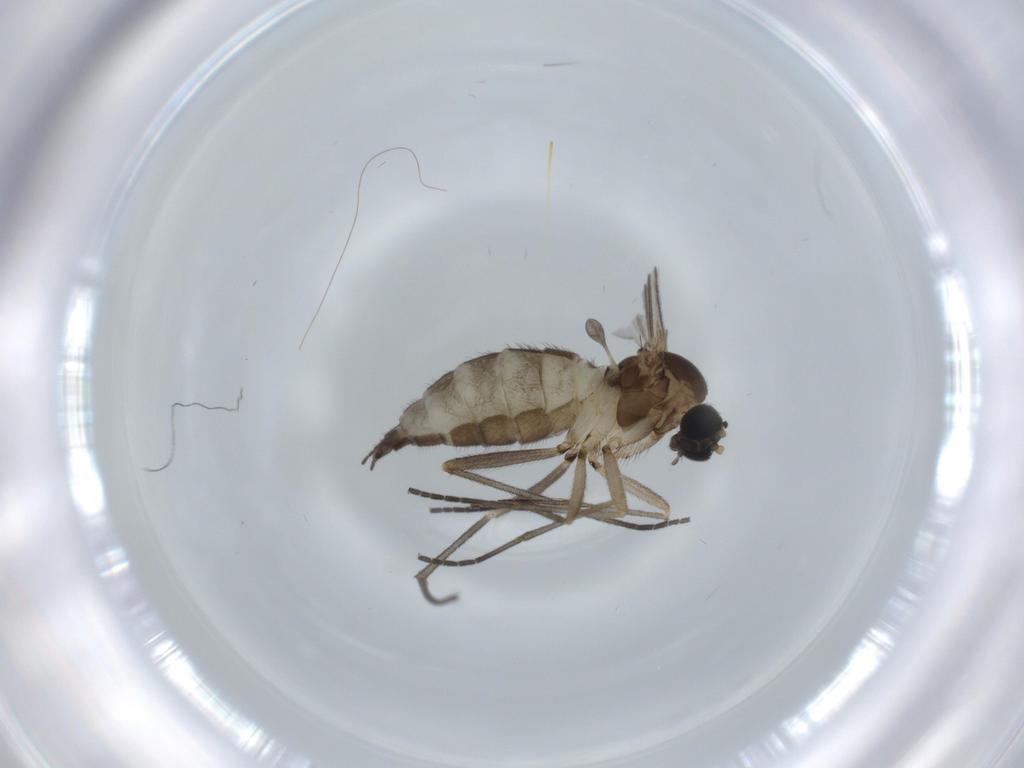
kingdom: Animalia
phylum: Arthropoda
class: Insecta
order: Diptera
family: Sciaridae
